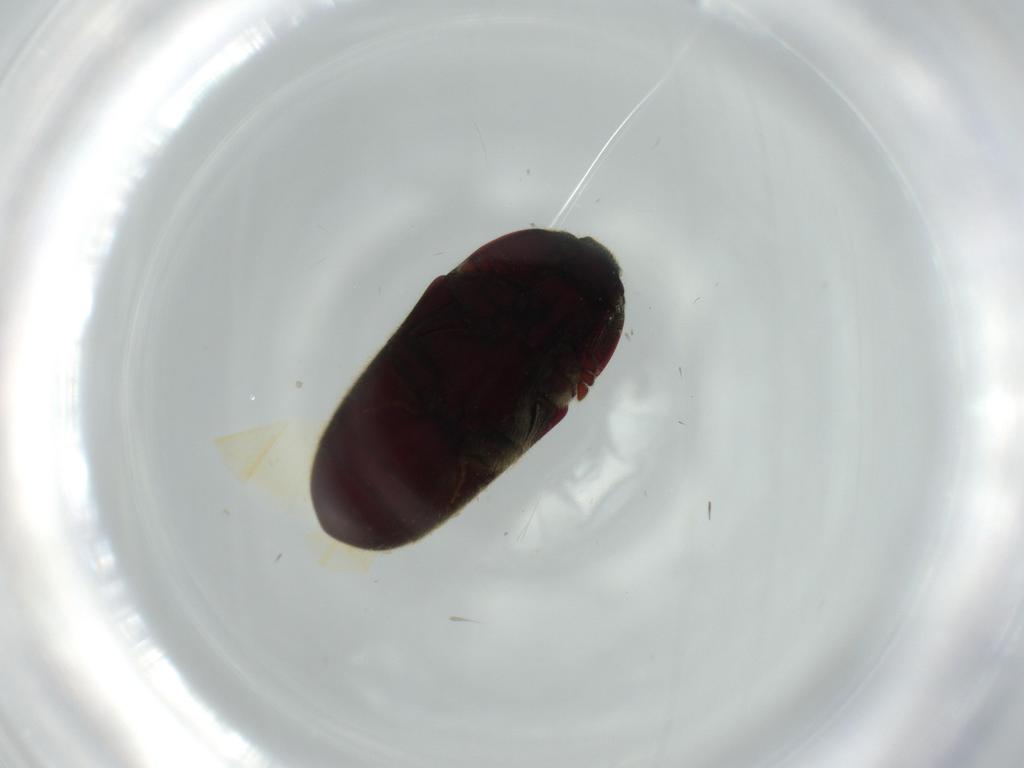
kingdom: Animalia
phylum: Arthropoda
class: Insecta
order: Coleoptera
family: Throscidae
